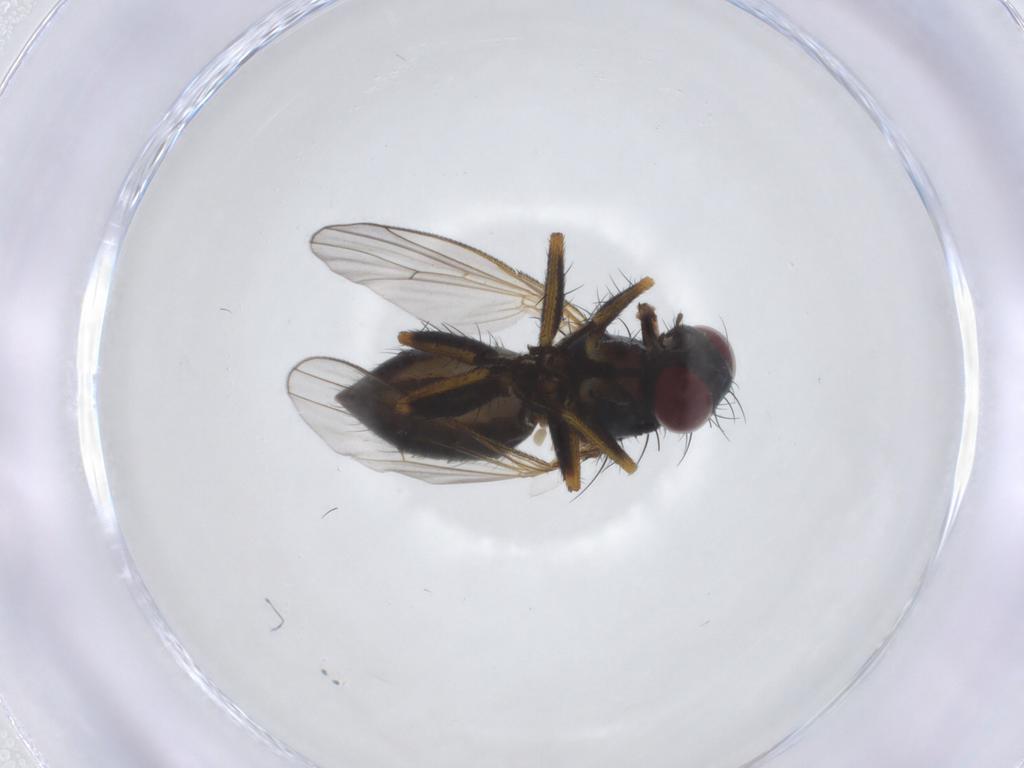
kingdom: Animalia
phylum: Arthropoda
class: Insecta
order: Diptera
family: Muscidae
